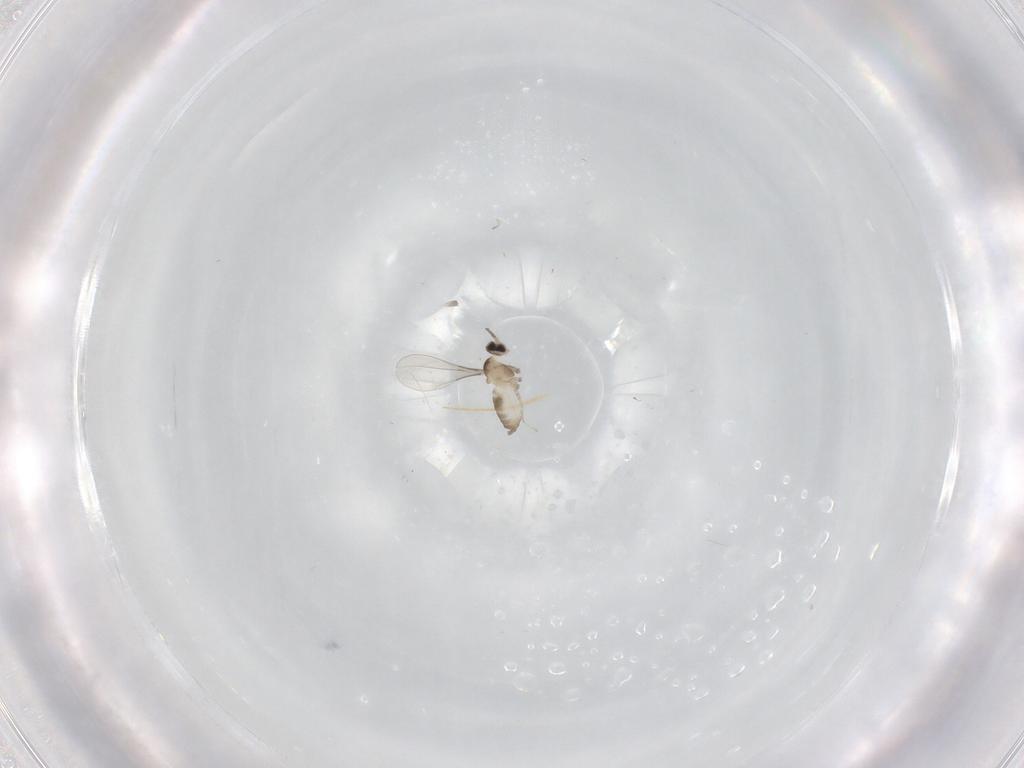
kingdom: Animalia
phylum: Arthropoda
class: Insecta
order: Diptera
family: Cecidomyiidae
